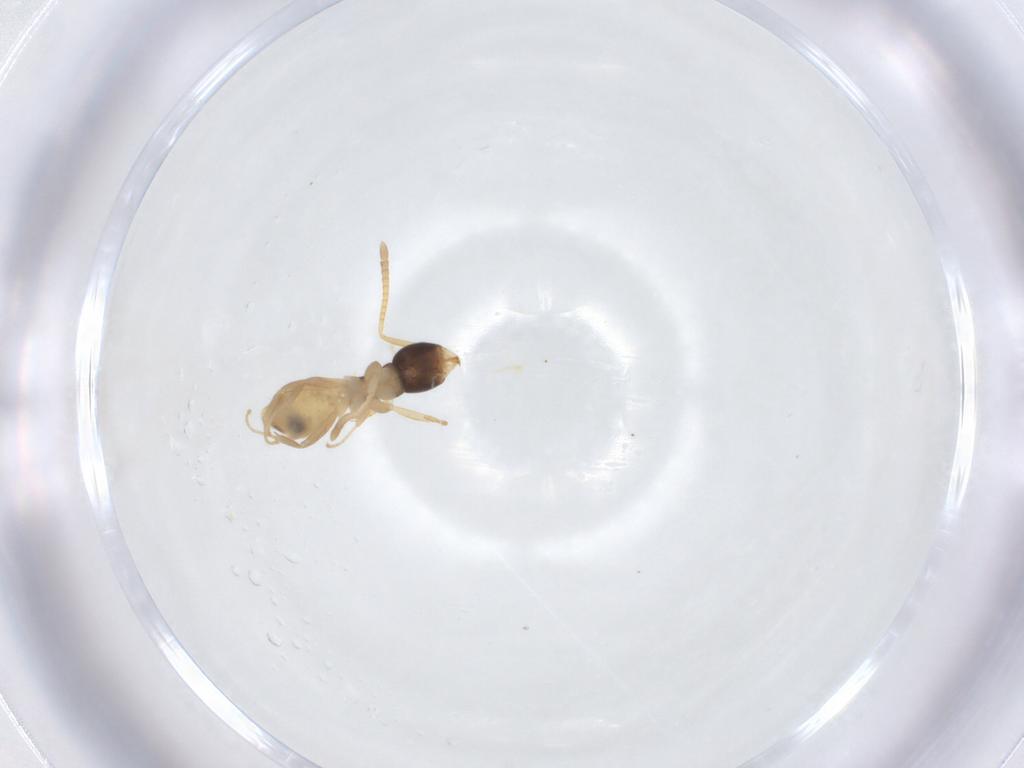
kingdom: Animalia
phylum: Arthropoda
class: Insecta
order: Hymenoptera
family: Formicidae
